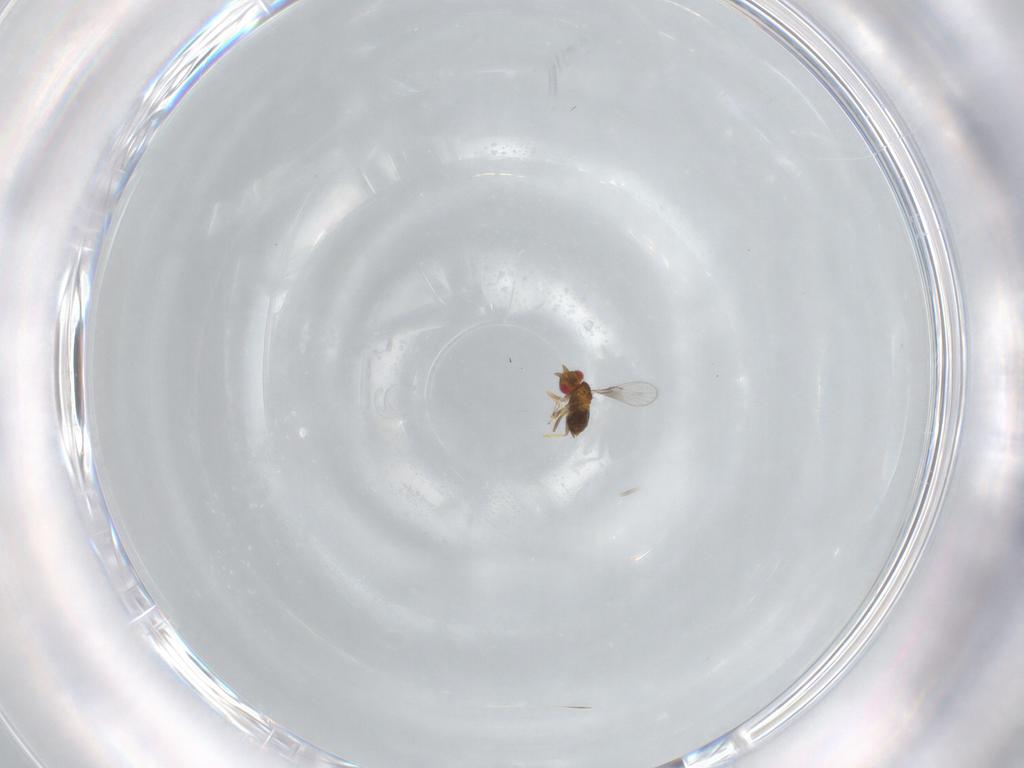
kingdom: Animalia
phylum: Arthropoda
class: Insecta
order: Hymenoptera
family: Trichogrammatidae
